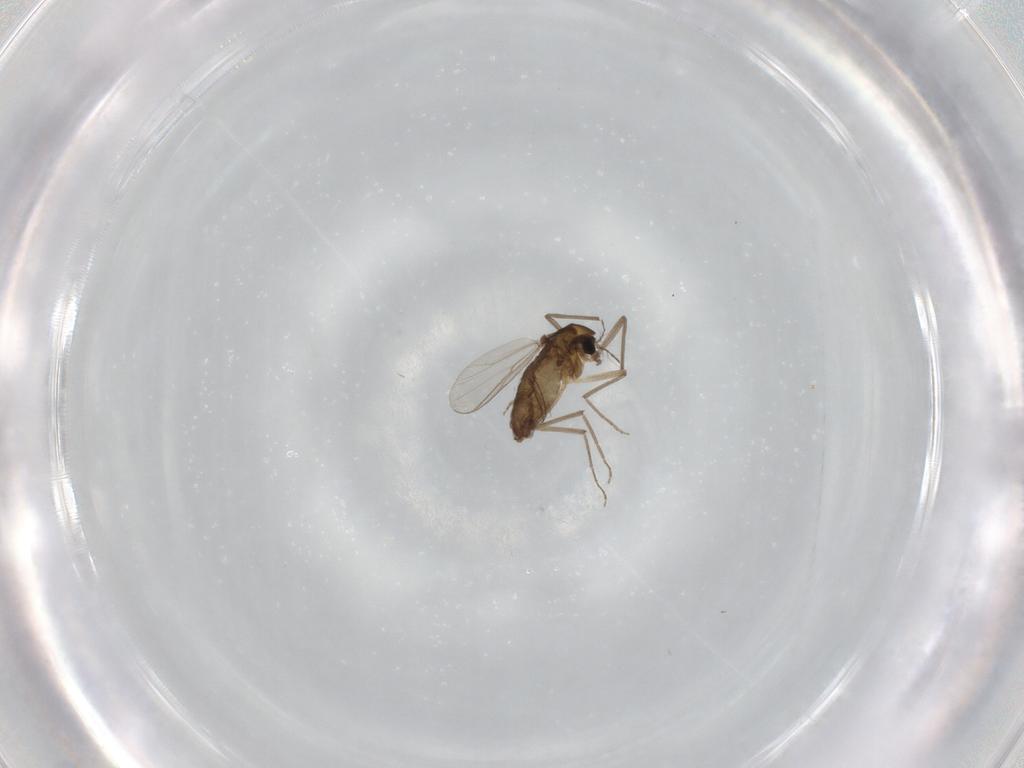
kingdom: Animalia
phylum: Arthropoda
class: Insecta
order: Diptera
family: Chironomidae
